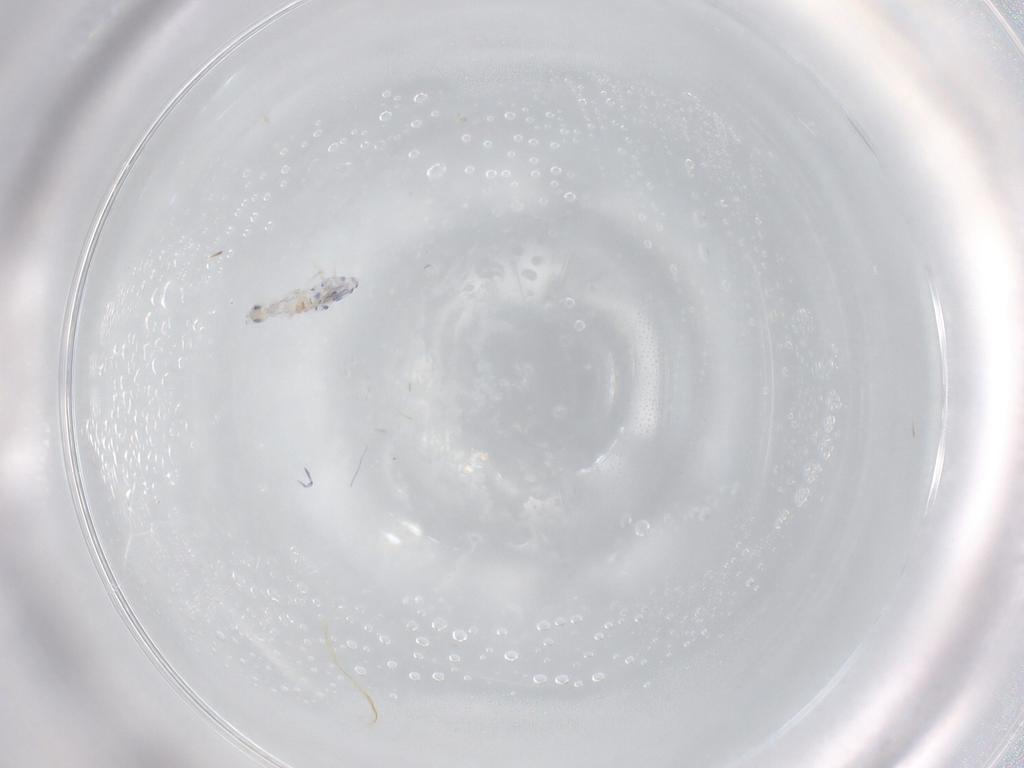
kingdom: Animalia
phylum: Arthropoda
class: Collembola
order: Entomobryomorpha
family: Entomobryidae
